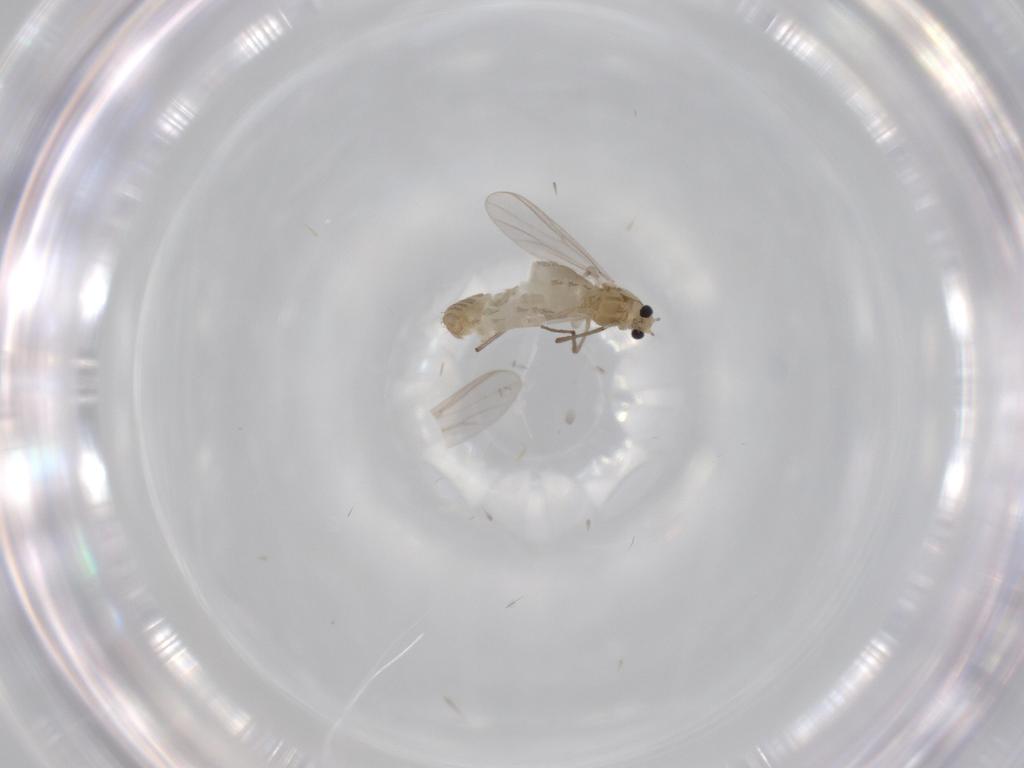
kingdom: Animalia
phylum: Arthropoda
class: Insecta
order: Diptera
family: Chironomidae
